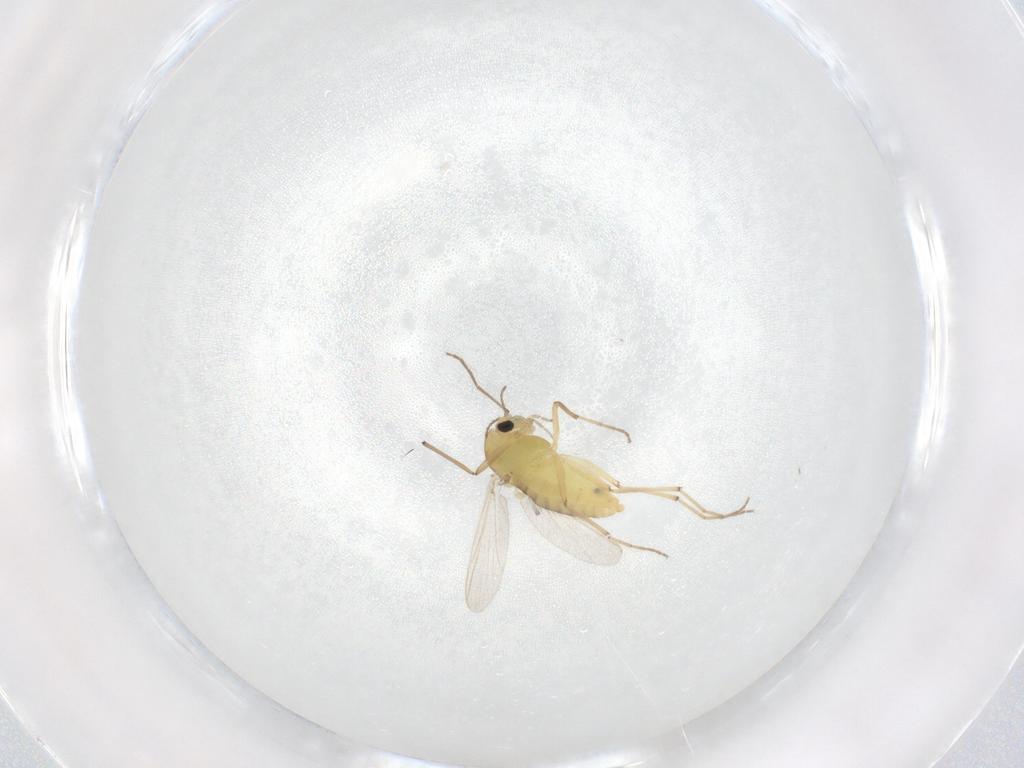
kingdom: Animalia
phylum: Arthropoda
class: Insecta
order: Diptera
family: Chironomidae
